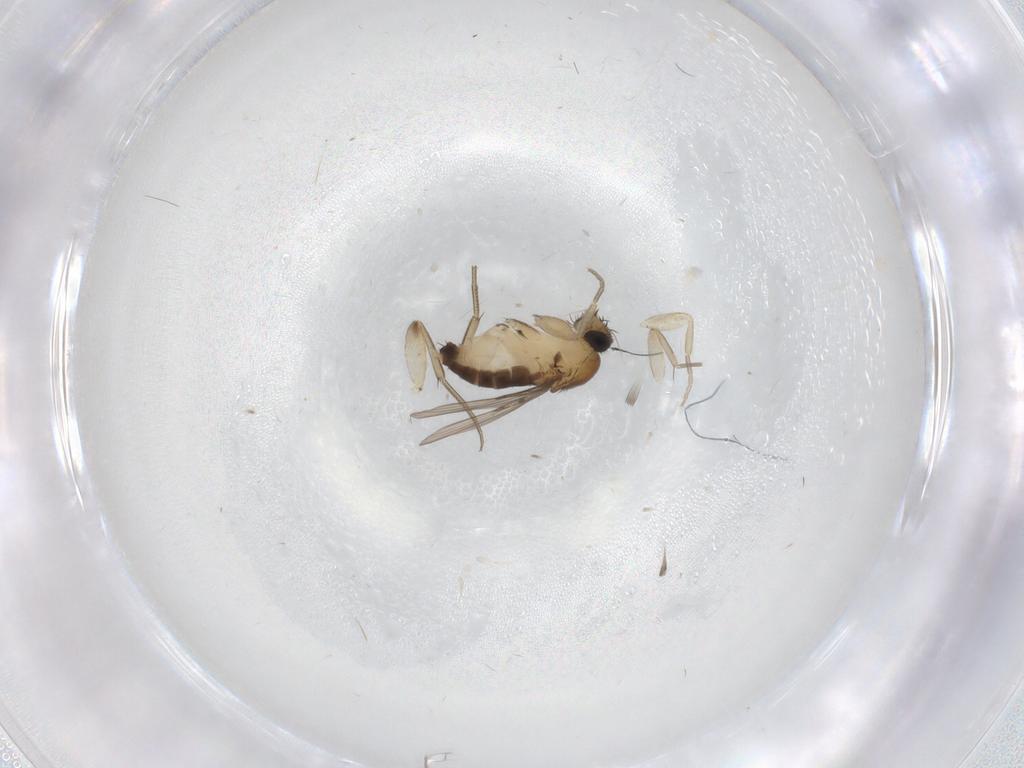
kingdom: Animalia
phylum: Arthropoda
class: Insecta
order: Diptera
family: Phoridae
